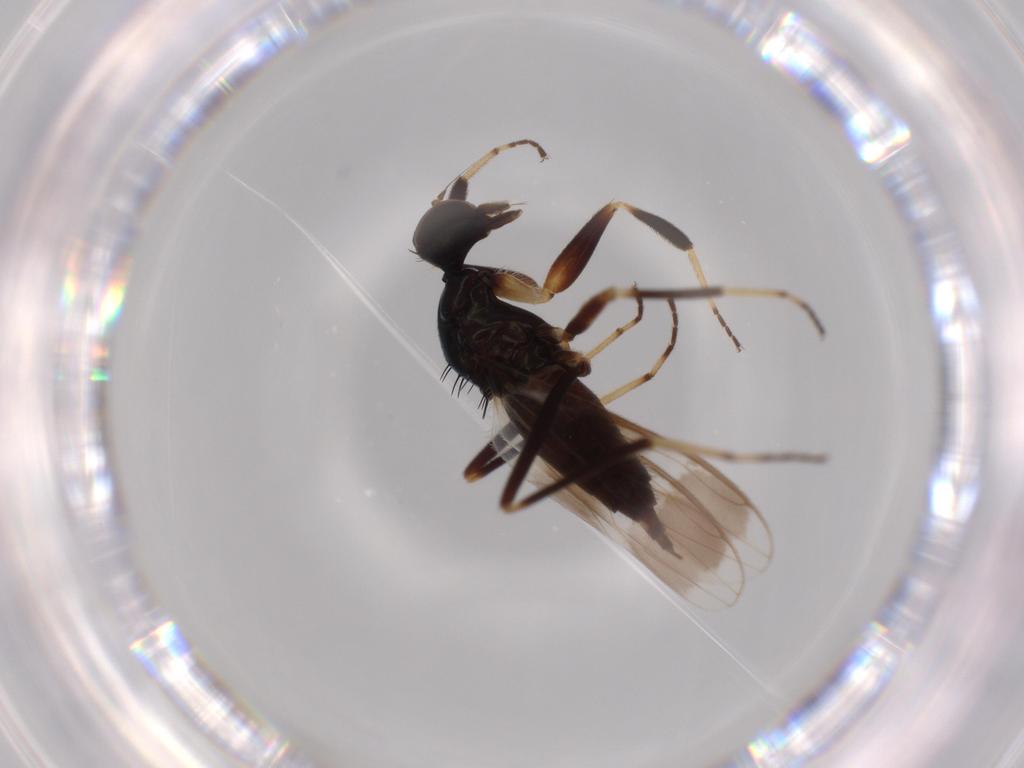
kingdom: Animalia
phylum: Arthropoda
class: Insecta
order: Diptera
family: Hybotidae
